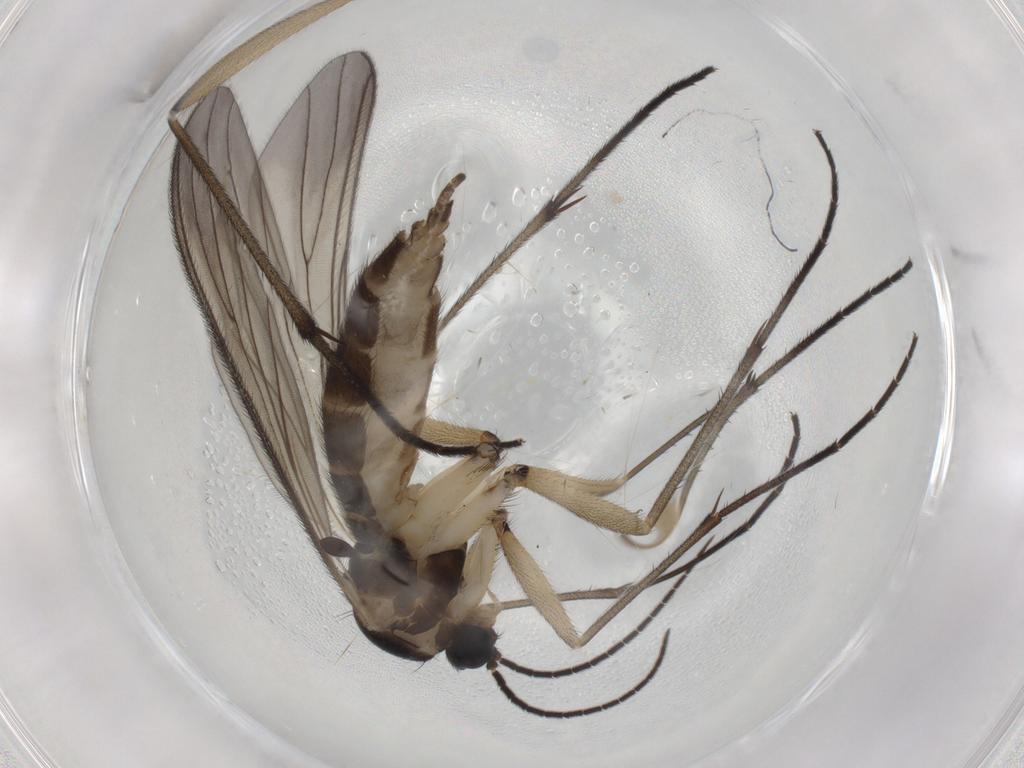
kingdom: Animalia
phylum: Arthropoda
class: Insecta
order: Diptera
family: Sciaridae
